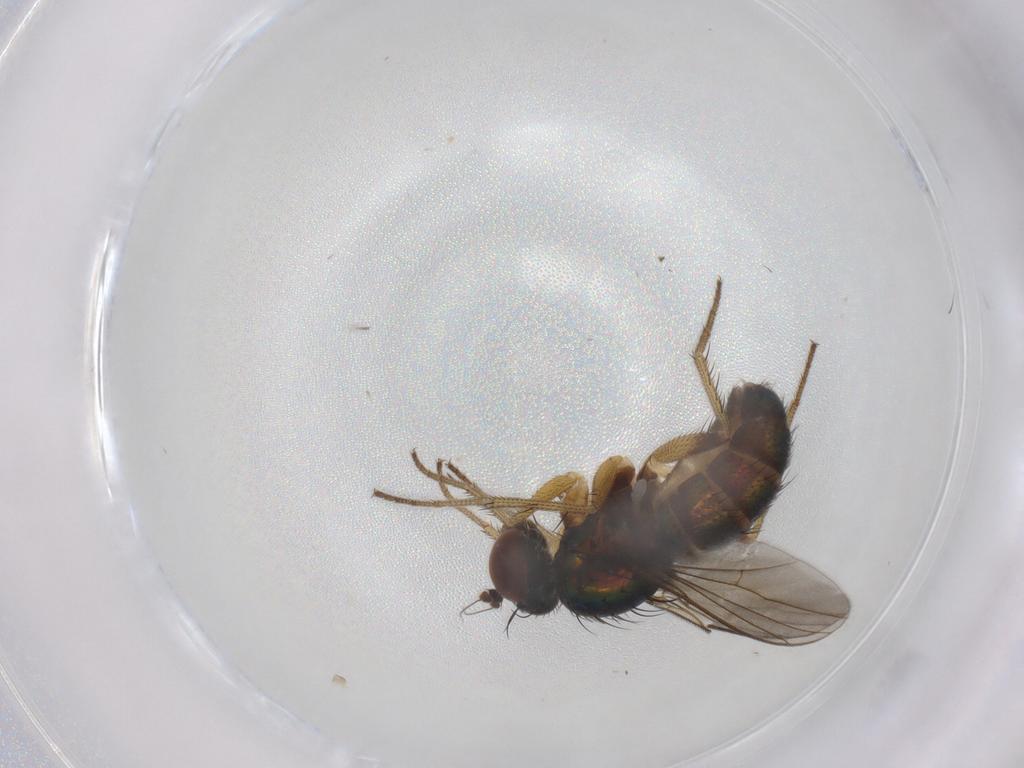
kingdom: Animalia
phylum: Arthropoda
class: Insecta
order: Diptera
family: Dolichopodidae
